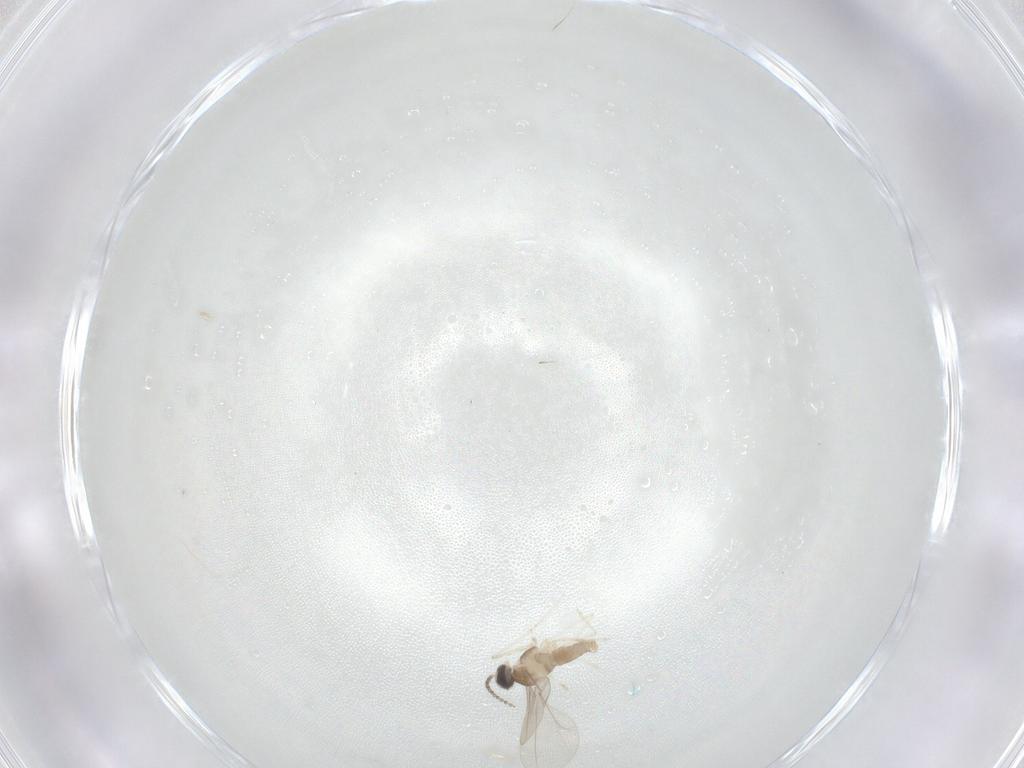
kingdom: Animalia
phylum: Arthropoda
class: Insecta
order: Diptera
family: Cecidomyiidae
